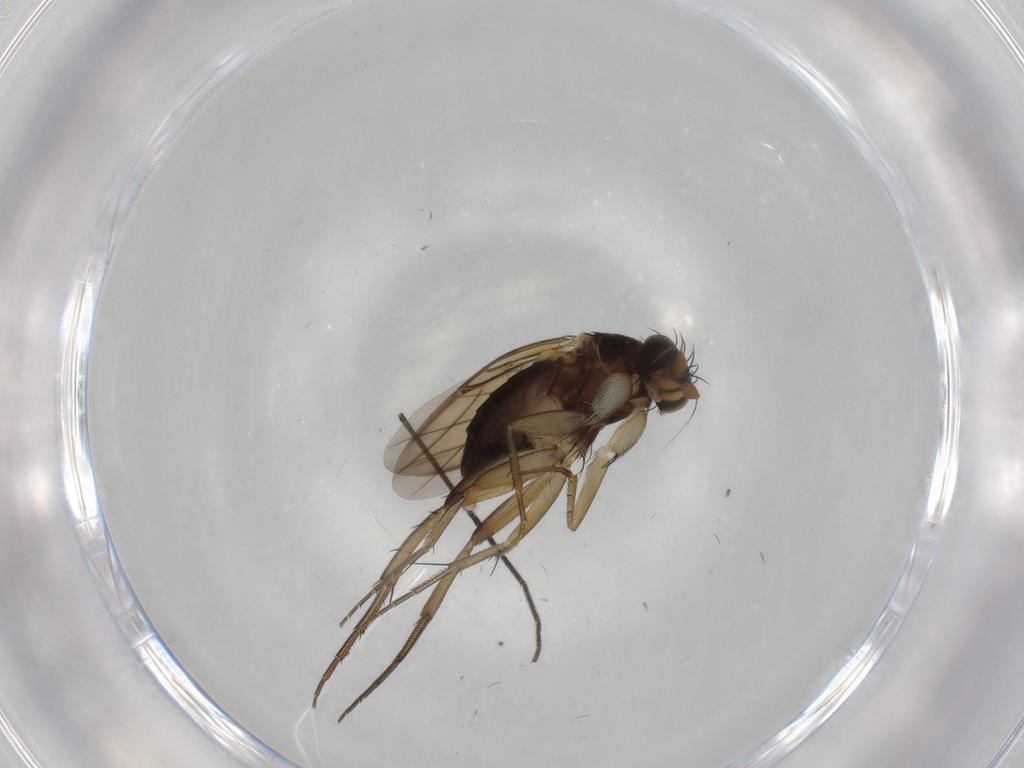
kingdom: Animalia
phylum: Arthropoda
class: Insecta
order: Diptera
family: Phoridae
